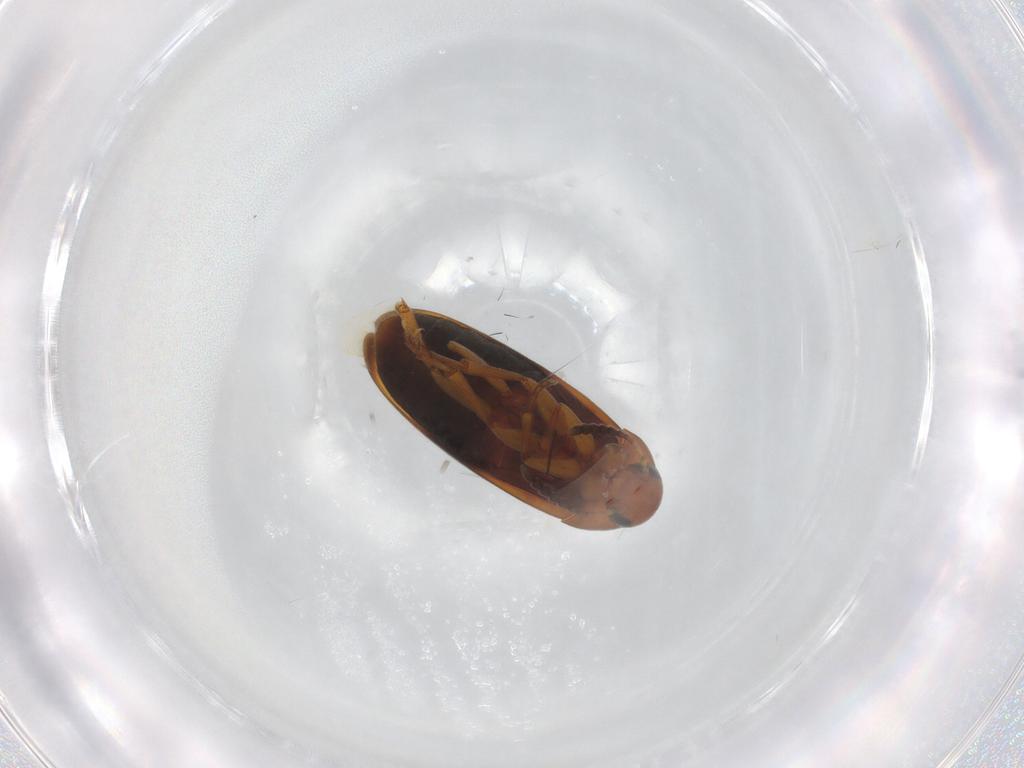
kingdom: Animalia
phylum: Arthropoda
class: Insecta
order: Coleoptera
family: Scraptiidae
